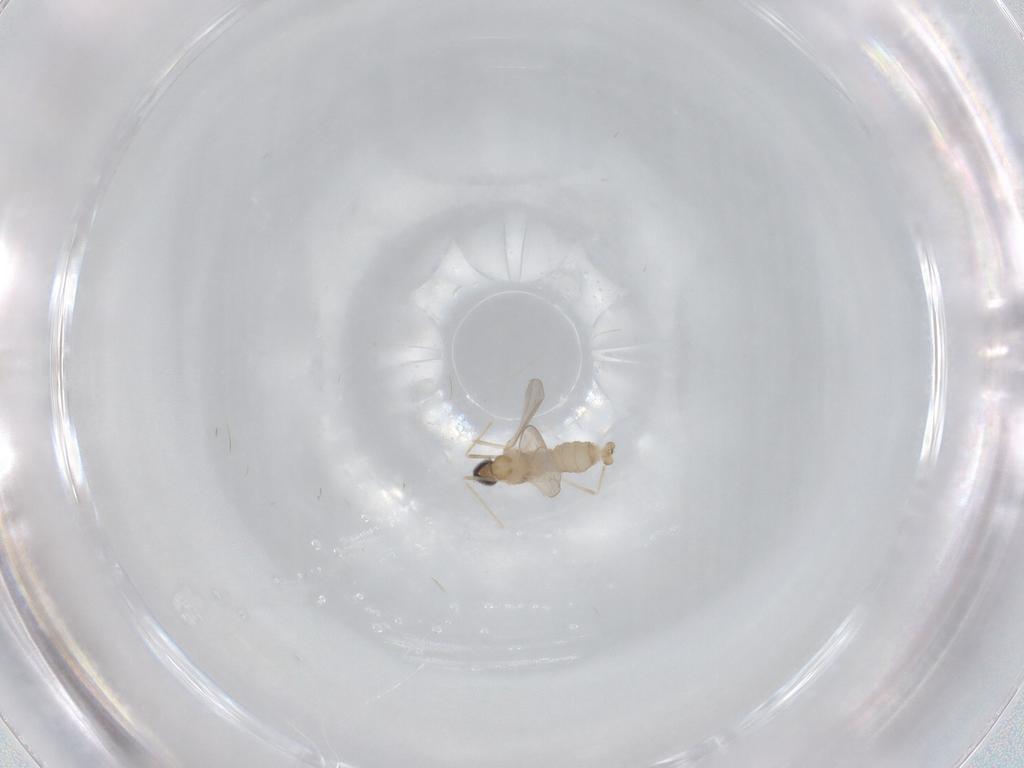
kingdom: Animalia
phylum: Arthropoda
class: Insecta
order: Diptera
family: Cecidomyiidae
